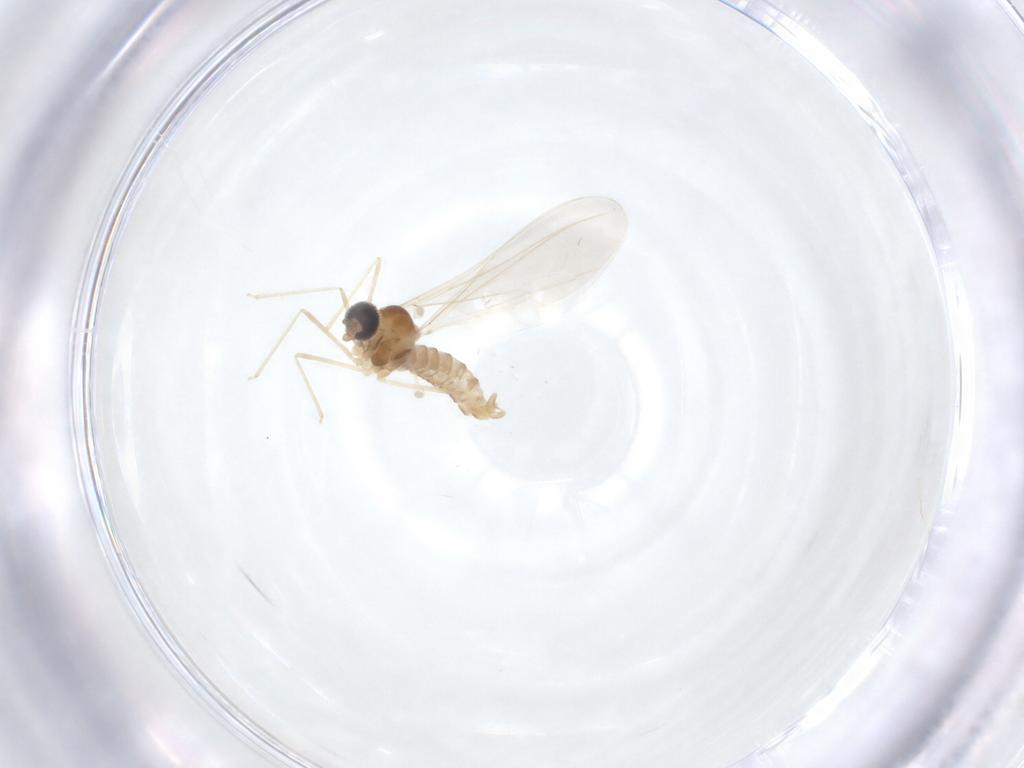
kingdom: Animalia
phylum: Arthropoda
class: Insecta
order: Diptera
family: Cecidomyiidae
